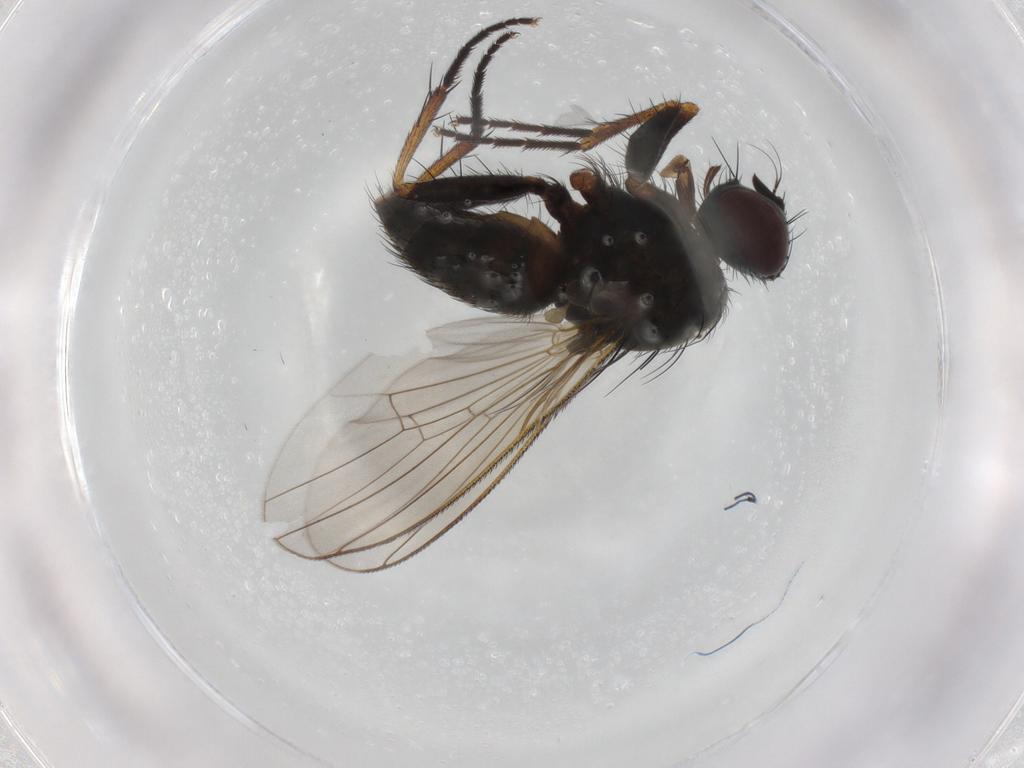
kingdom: Animalia
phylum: Arthropoda
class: Insecta
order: Diptera
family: Muscidae
